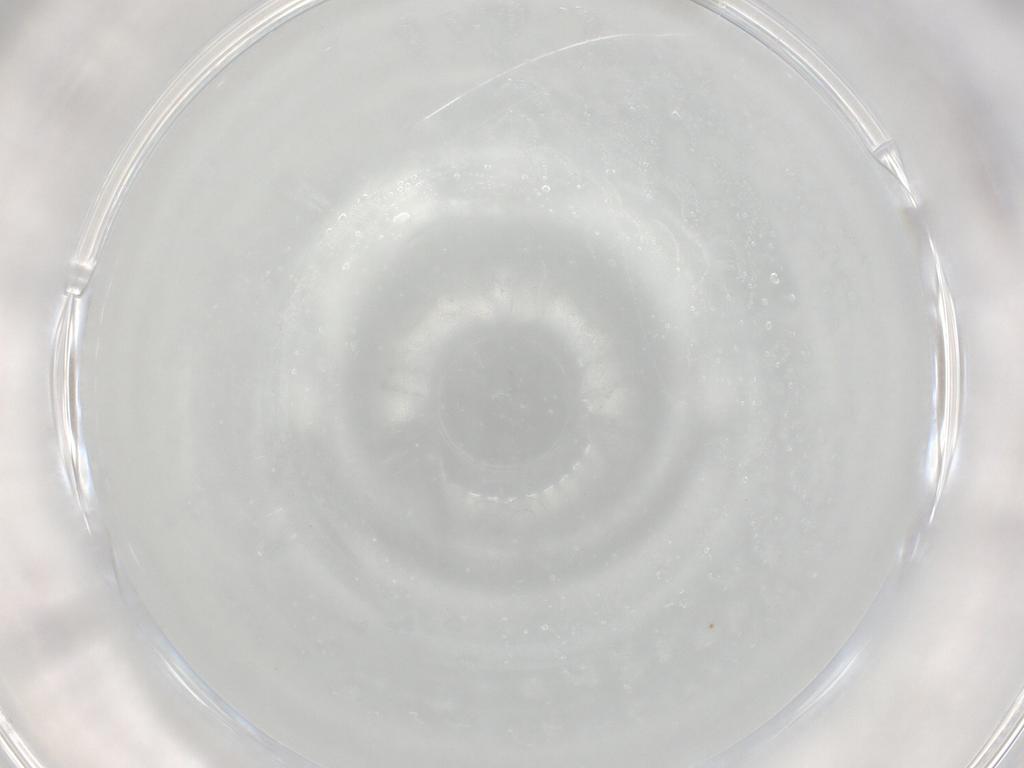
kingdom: Animalia
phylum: Arthropoda
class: Insecta
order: Diptera
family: Cecidomyiidae
